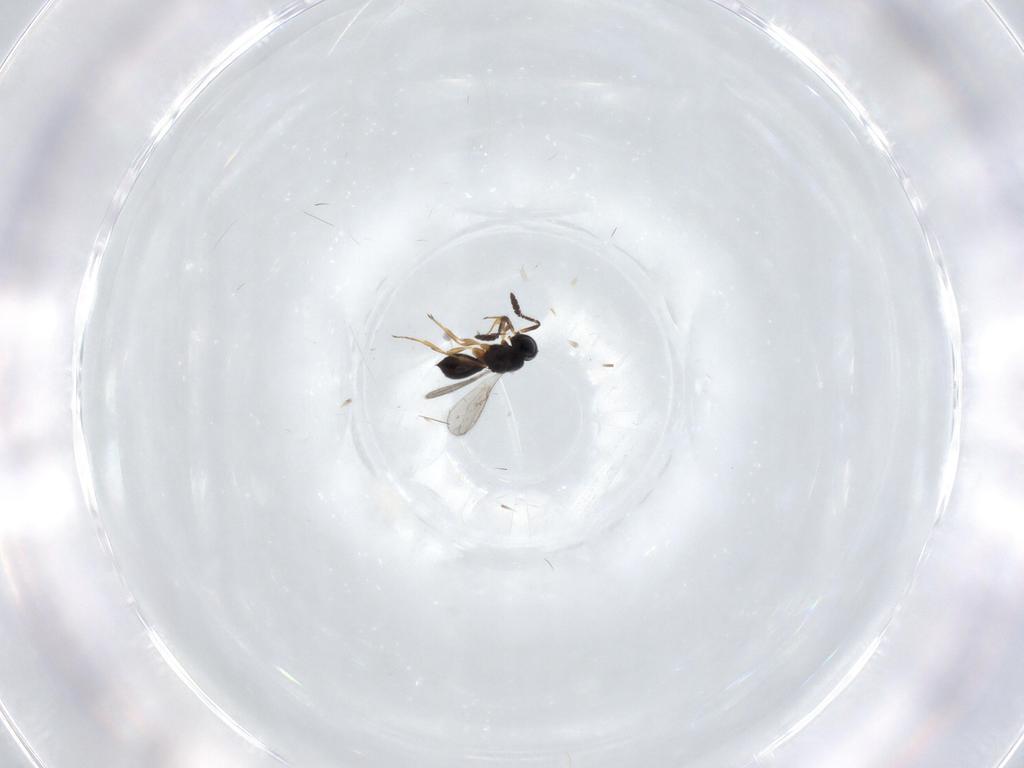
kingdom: Animalia
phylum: Arthropoda
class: Insecta
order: Hymenoptera
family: Scelionidae
